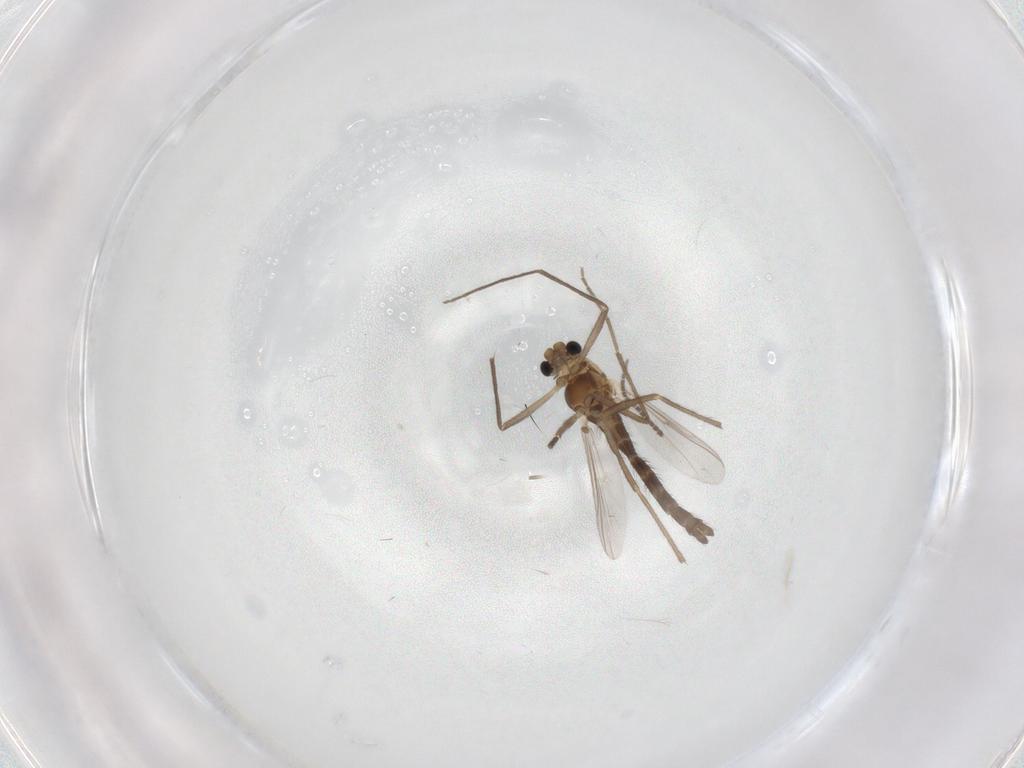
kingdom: Animalia
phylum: Arthropoda
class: Insecta
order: Diptera
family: Chironomidae
